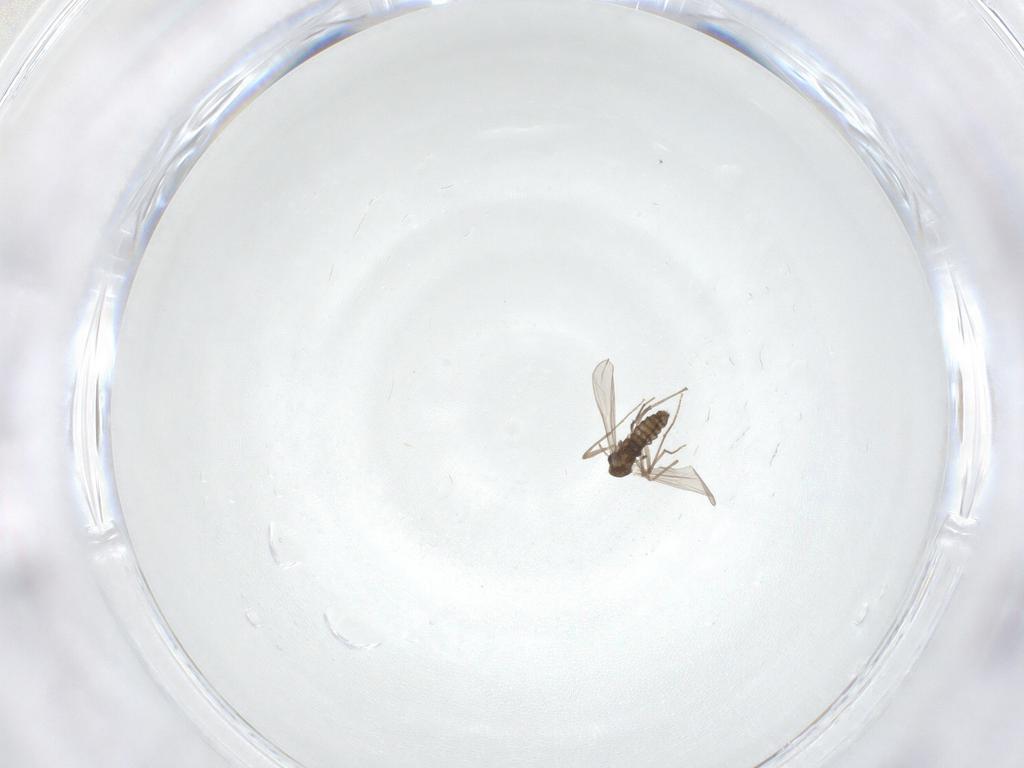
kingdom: Animalia
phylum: Arthropoda
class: Insecta
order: Diptera
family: Chironomidae
